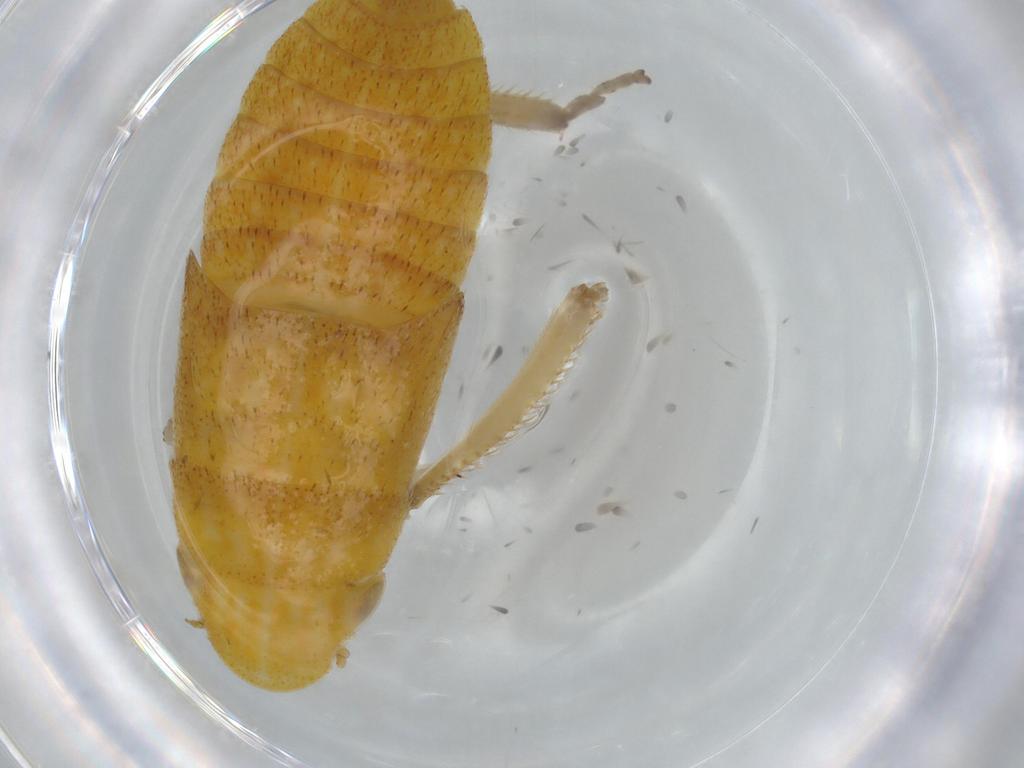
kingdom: Animalia
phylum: Arthropoda
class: Insecta
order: Hemiptera
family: Cicadellidae
